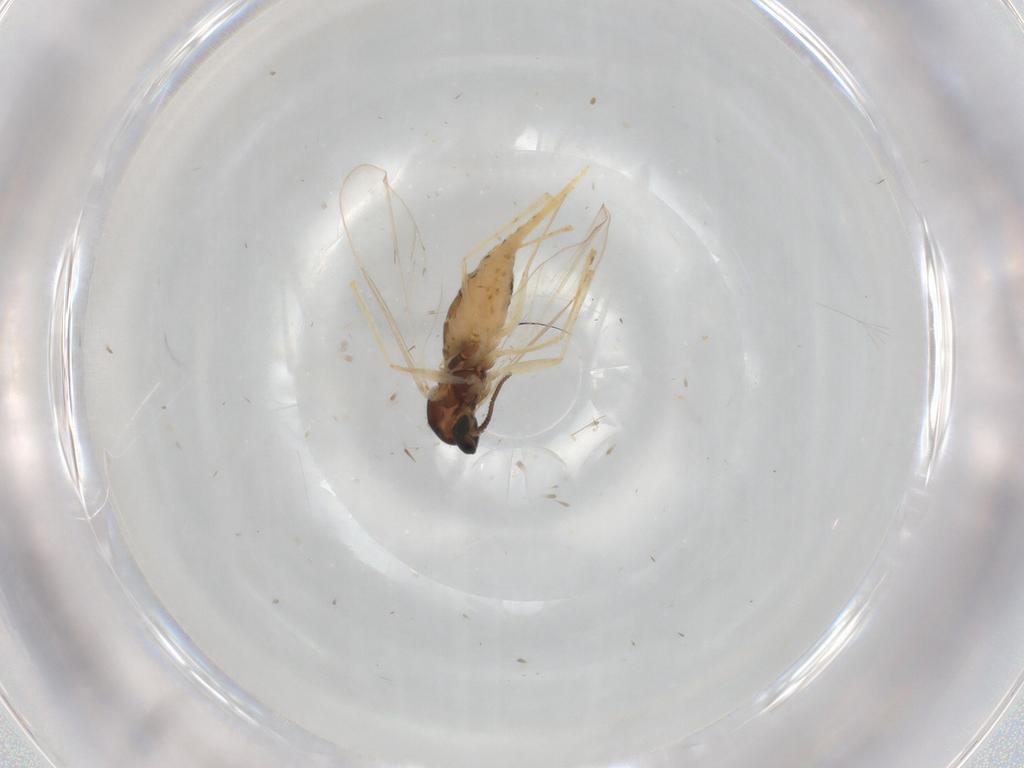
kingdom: Animalia
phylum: Arthropoda
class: Insecta
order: Diptera
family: Cecidomyiidae
